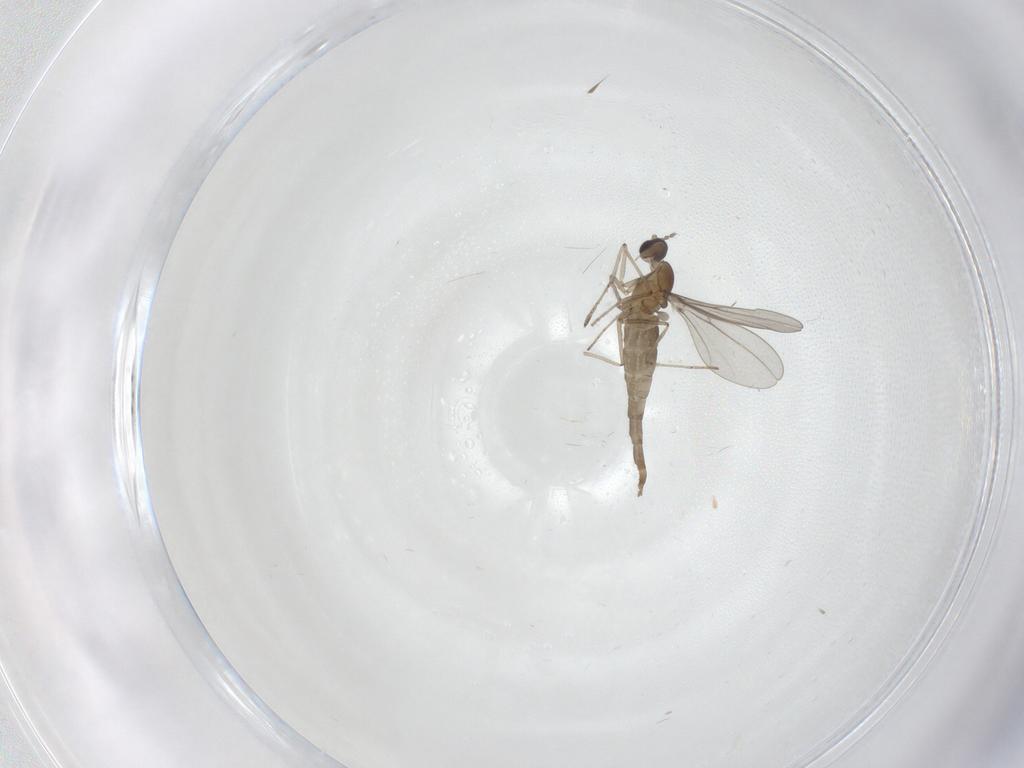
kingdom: Animalia
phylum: Arthropoda
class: Insecta
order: Diptera
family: Cecidomyiidae
